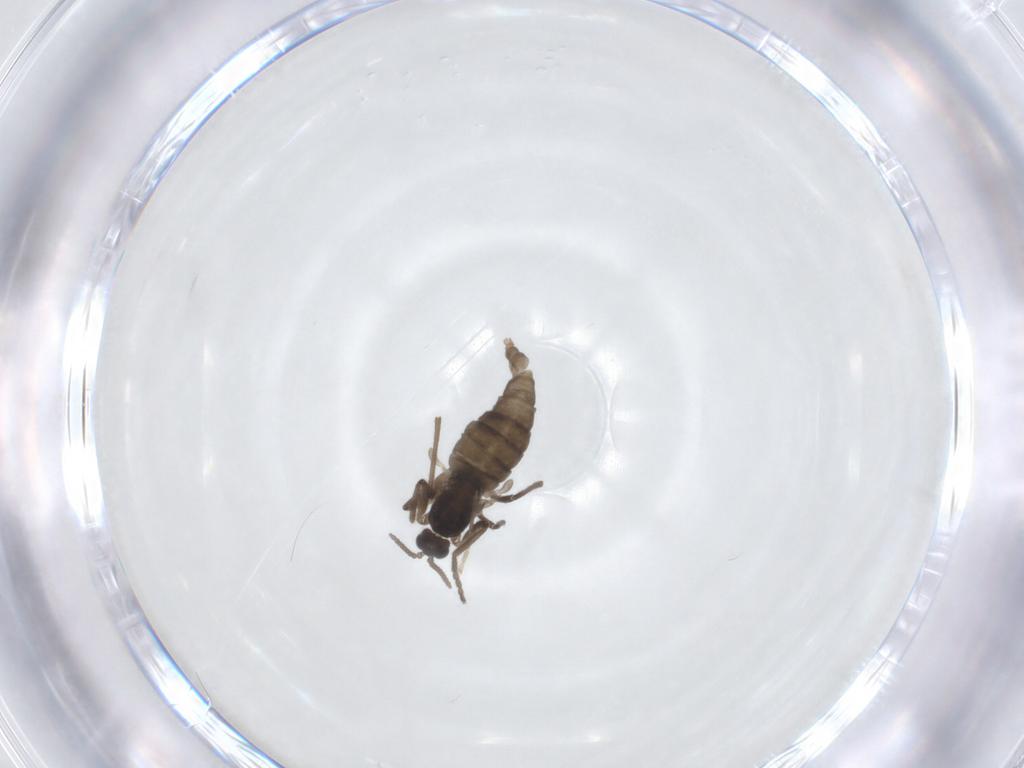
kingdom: Animalia
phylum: Arthropoda
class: Insecta
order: Diptera
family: Cecidomyiidae
